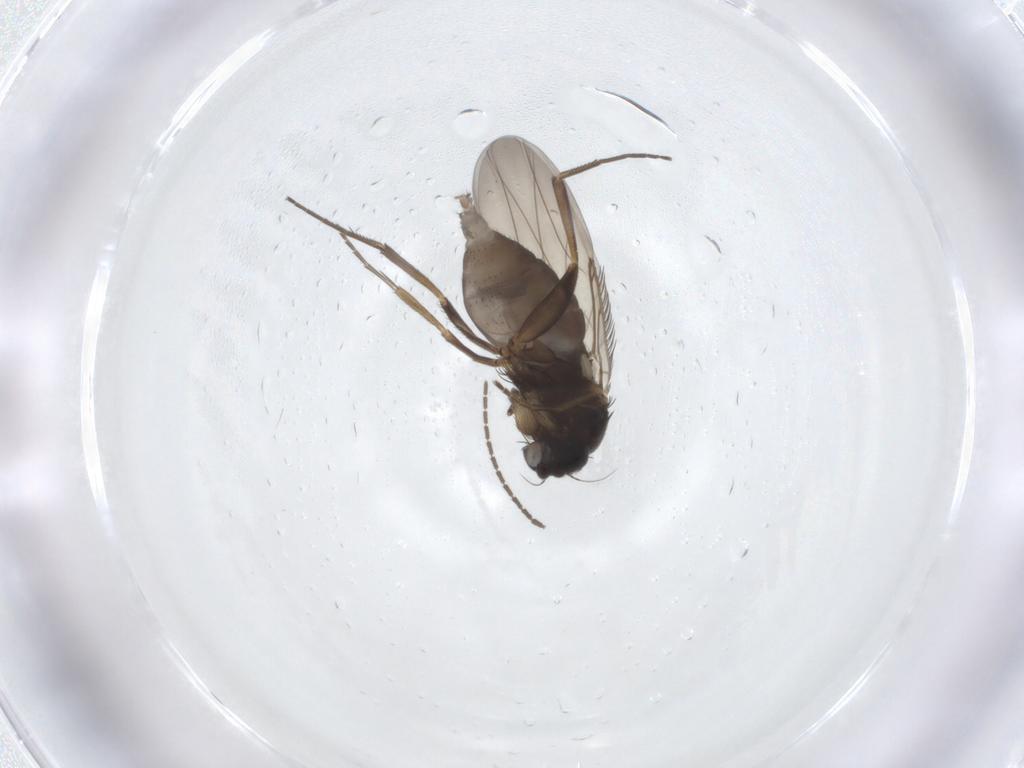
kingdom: Animalia
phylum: Arthropoda
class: Insecta
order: Diptera
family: Phoridae
